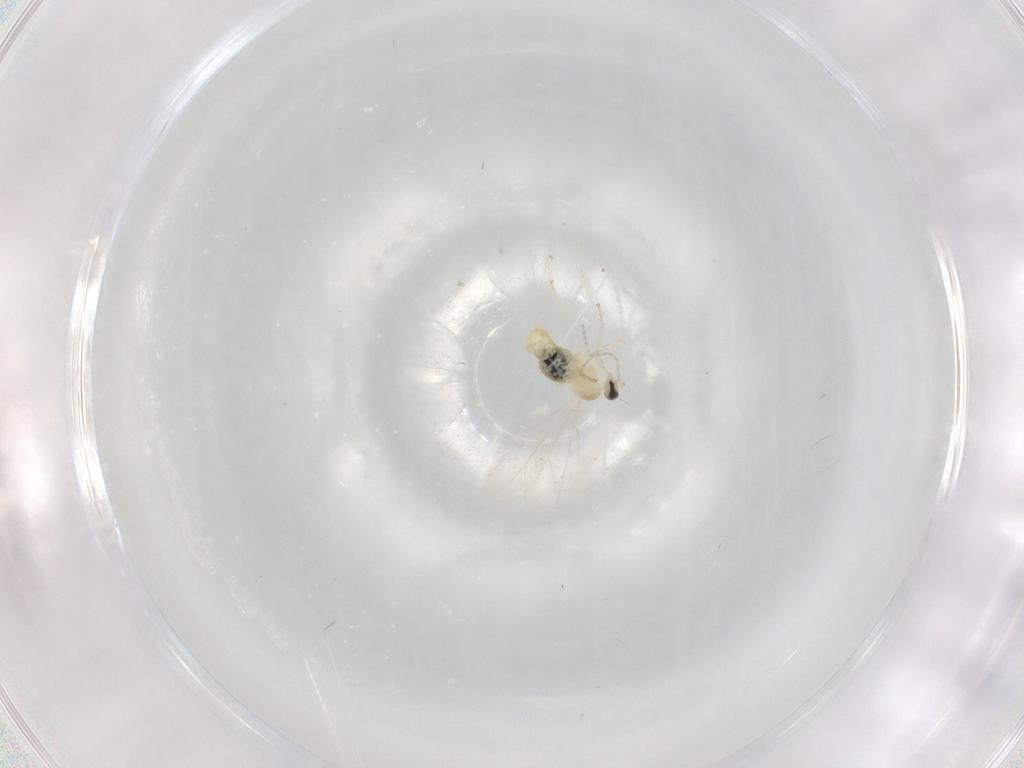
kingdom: Animalia
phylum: Arthropoda
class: Insecta
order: Diptera
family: Cecidomyiidae
